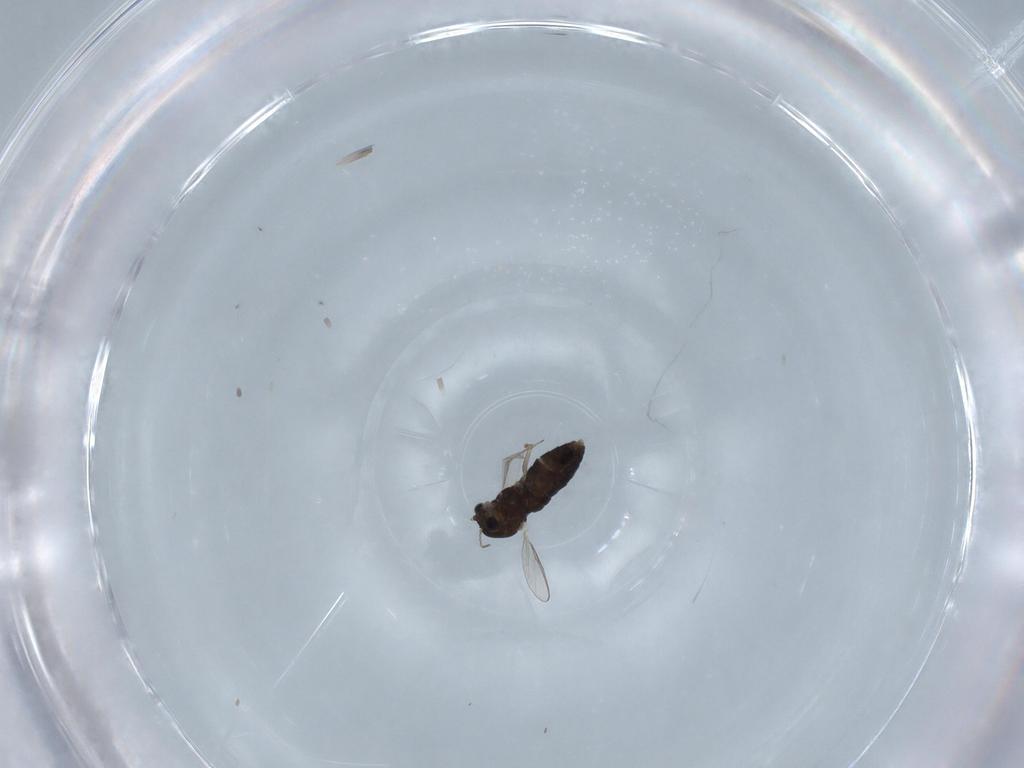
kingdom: Animalia
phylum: Arthropoda
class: Insecta
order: Diptera
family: Chironomidae
